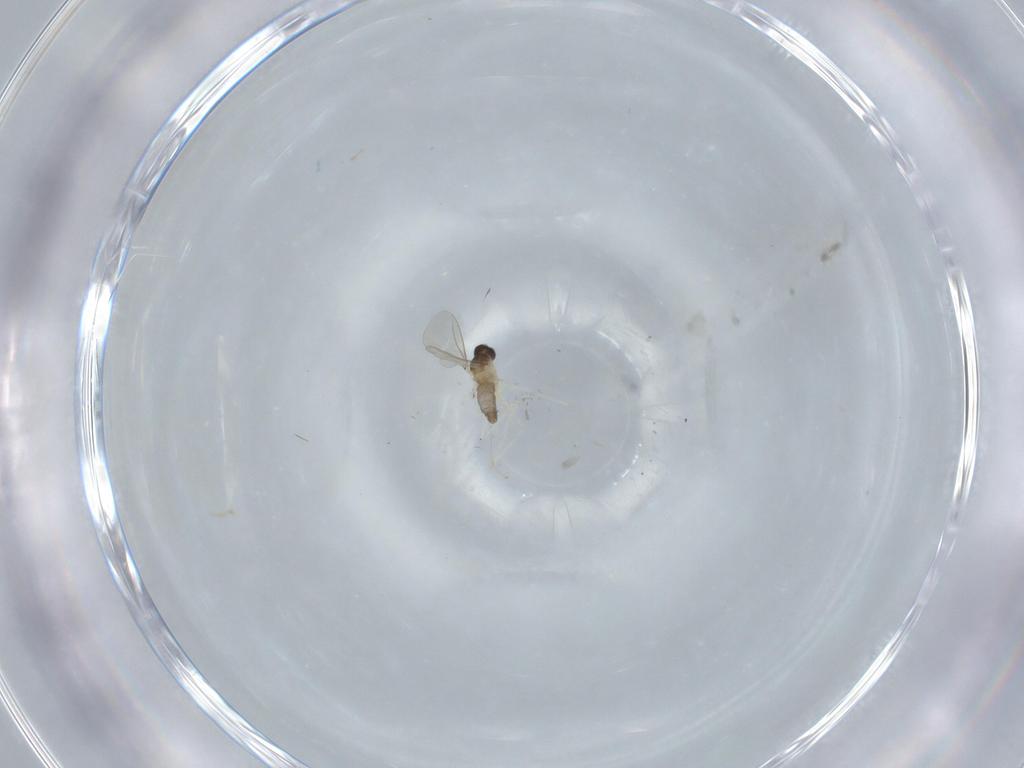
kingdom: Animalia
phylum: Arthropoda
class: Insecta
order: Diptera
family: Cecidomyiidae
